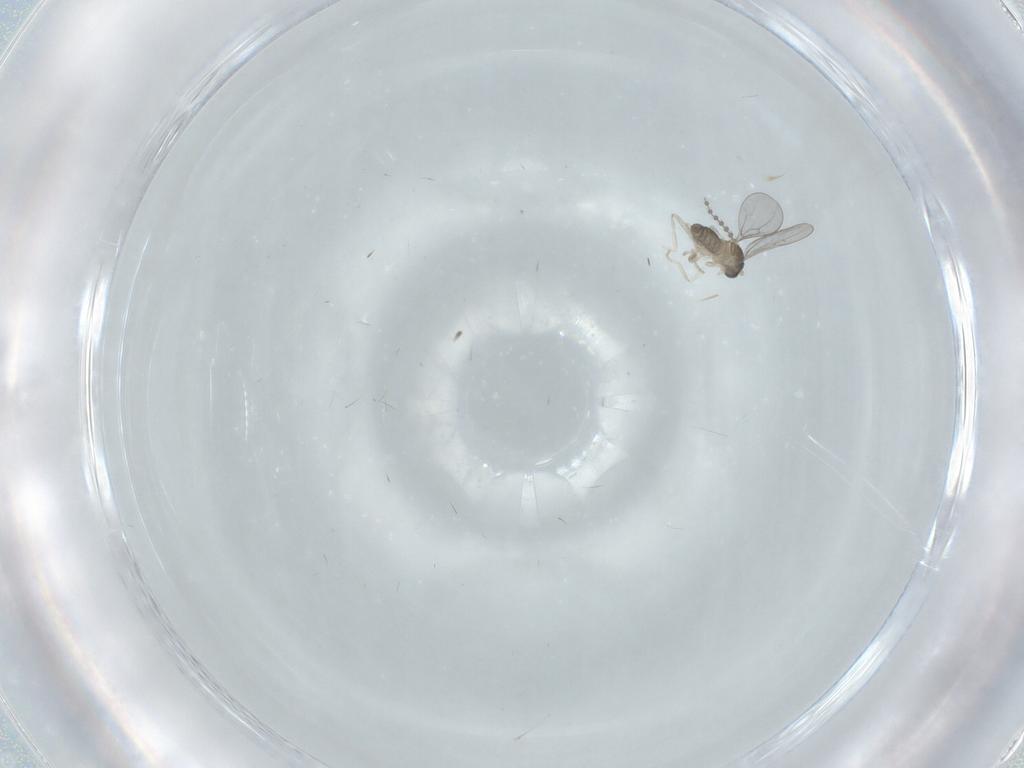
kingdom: Animalia
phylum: Arthropoda
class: Insecta
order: Diptera
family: Cecidomyiidae
